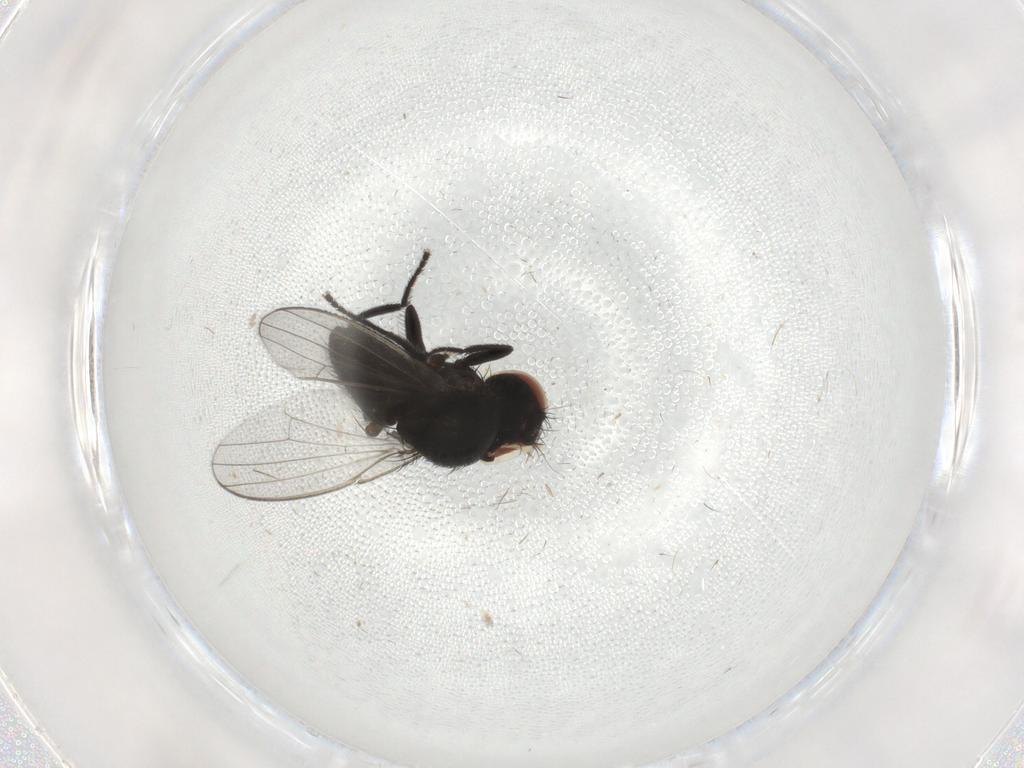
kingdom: Animalia
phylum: Arthropoda
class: Insecta
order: Diptera
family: Milichiidae
